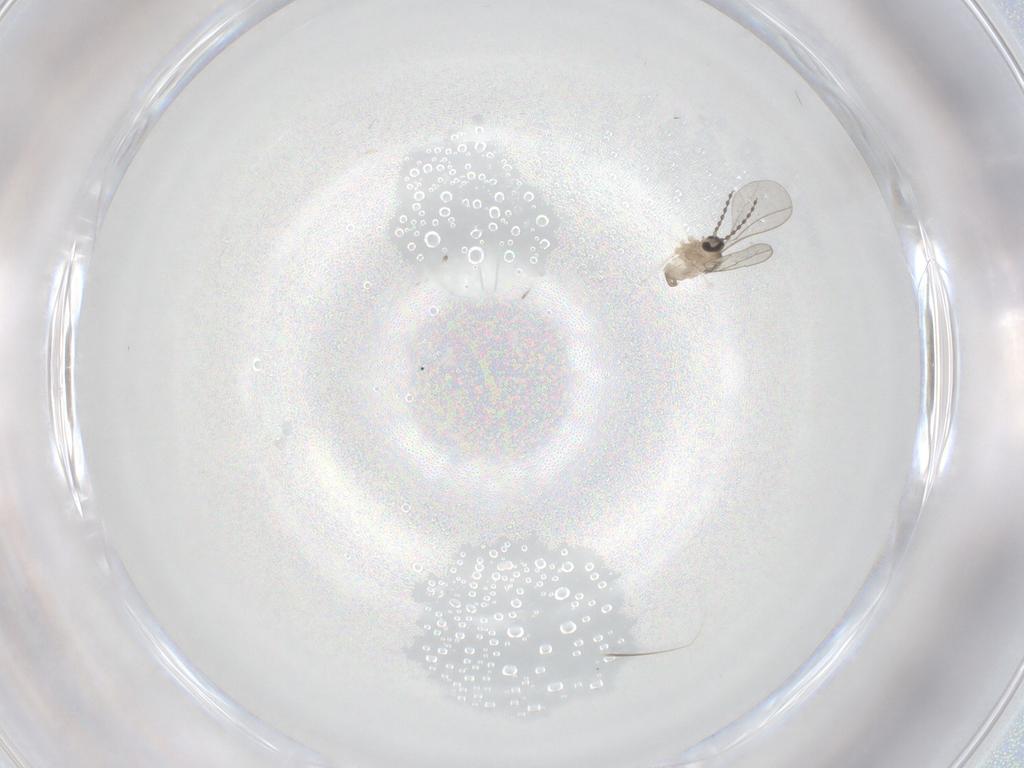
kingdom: Animalia
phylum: Arthropoda
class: Insecta
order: Diptera
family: Cecidomyiidae
